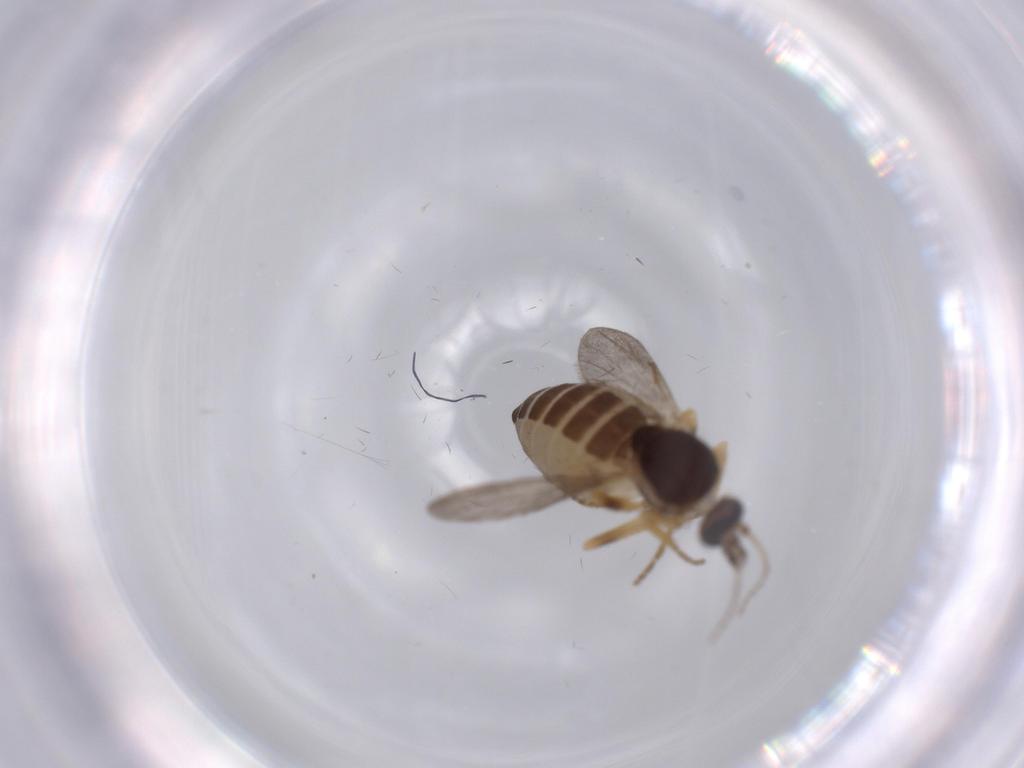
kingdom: Animalia
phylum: Arthropoda
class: Insecta
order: Diptera
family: Ceratopogonidae
